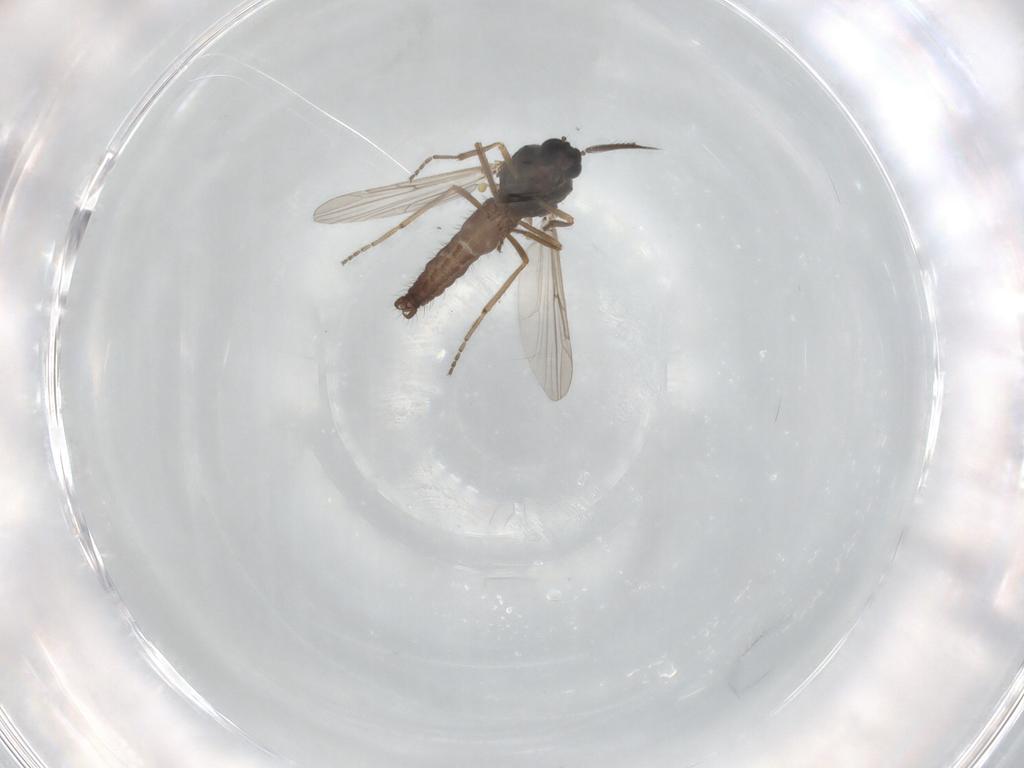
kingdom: Animalia
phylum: Arthropoda
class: Insecta
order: Diptera
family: Ceratopogonidae
